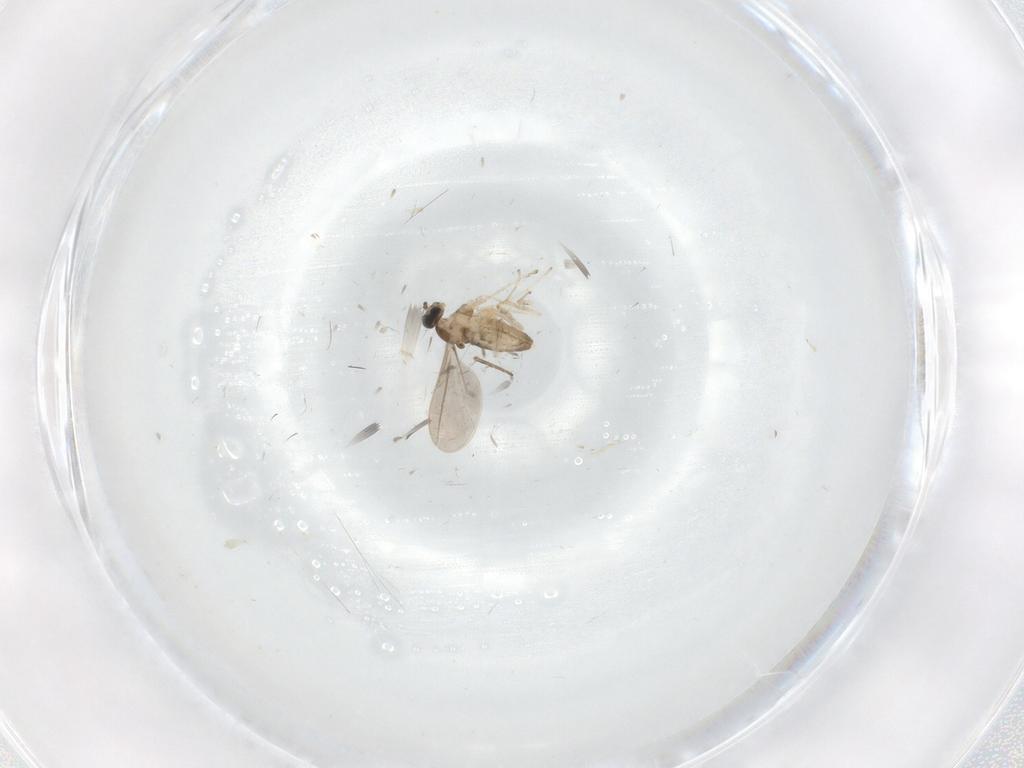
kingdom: Animalia
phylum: Arthropoda
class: Insecta
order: Diptera
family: Cecidomyiidae
